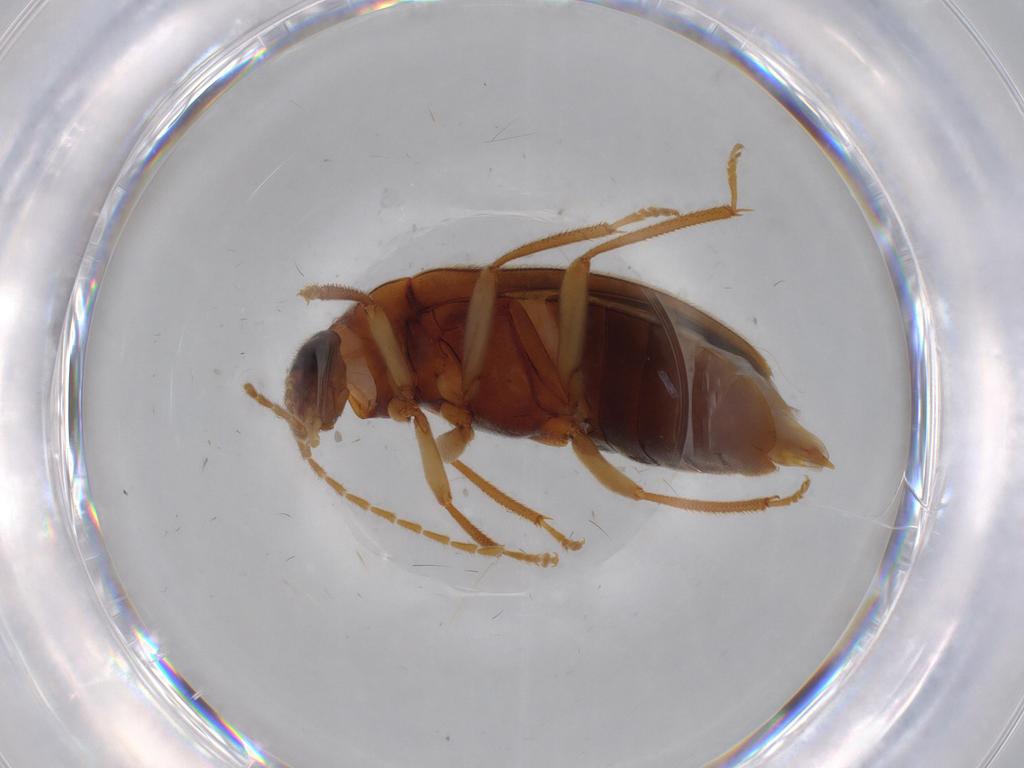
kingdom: Animalia
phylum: Arthropoda
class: Insecta
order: Coleoptera
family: Ptilodactylidae
